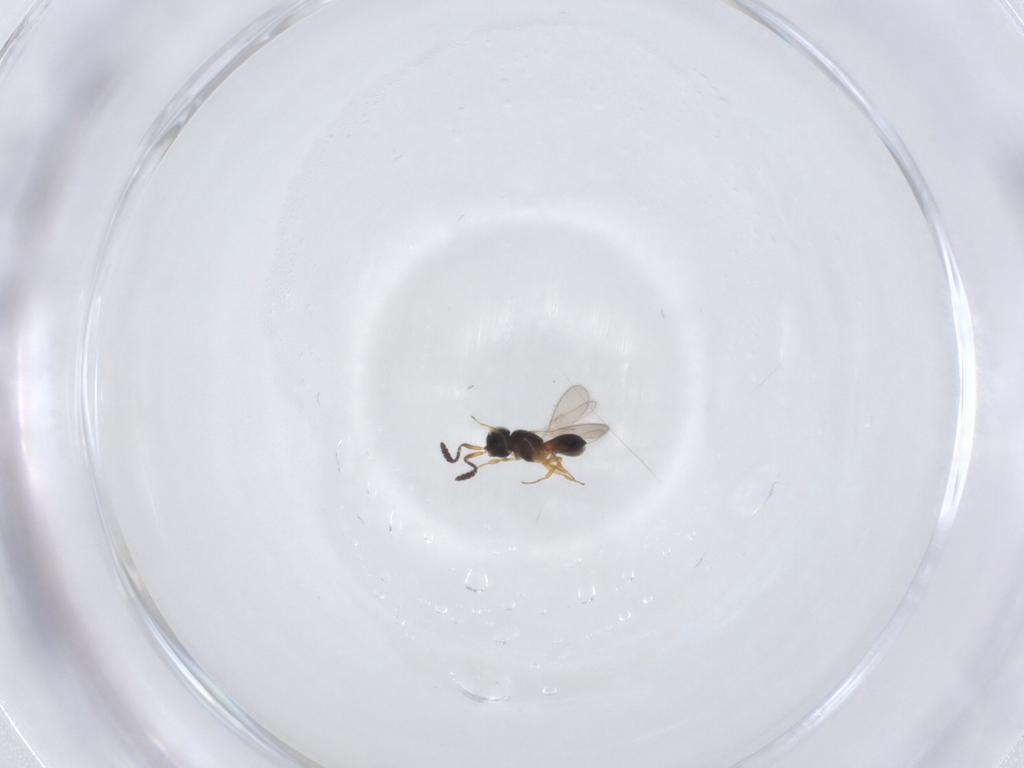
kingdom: Animalia
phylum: Arthropoda
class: Insecta
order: Hymenoptera
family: Scelionidae
